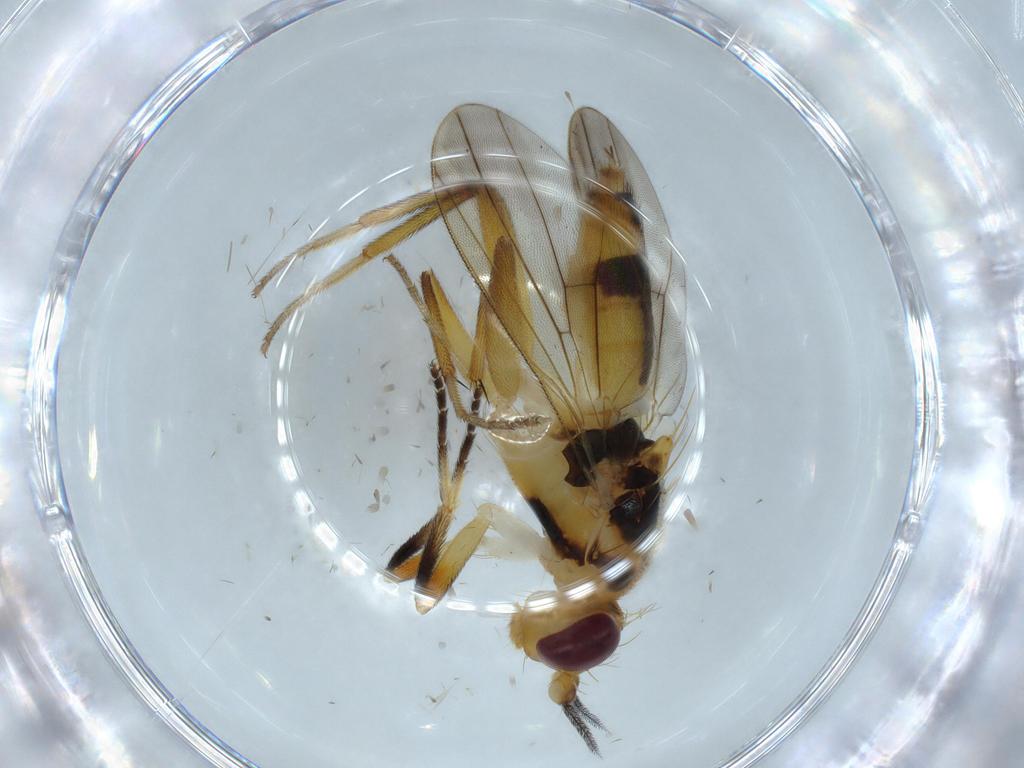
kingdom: Animalia
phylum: Arthropoda
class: Insecta
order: Diptera
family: Clusiidae
